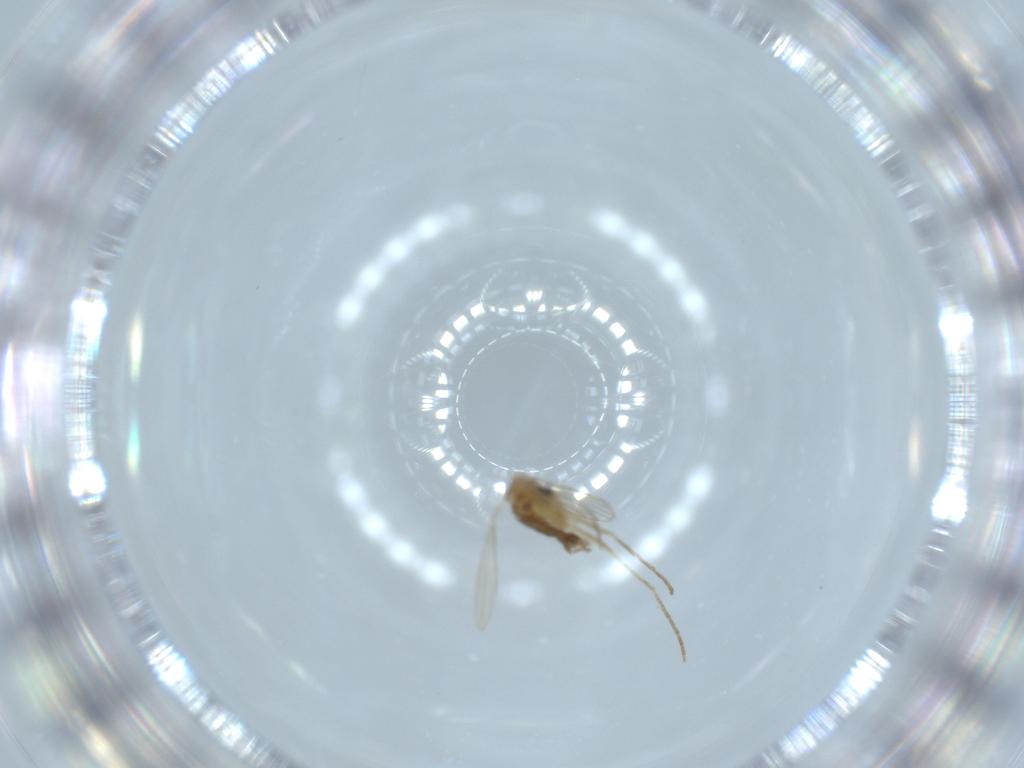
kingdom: Animalia
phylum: Arthropoda
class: Insecta
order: Diptera
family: Psychodidae
